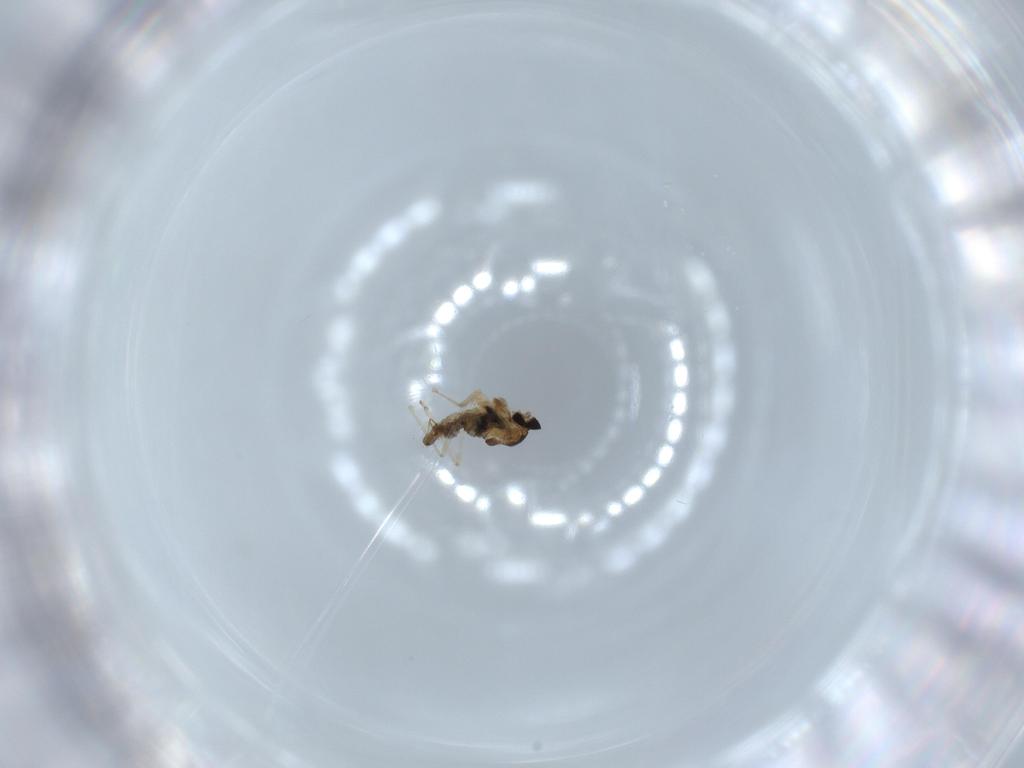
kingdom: Animalia
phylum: Arthropoda
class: Insecta
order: Diptera
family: Cecidomyiidae
